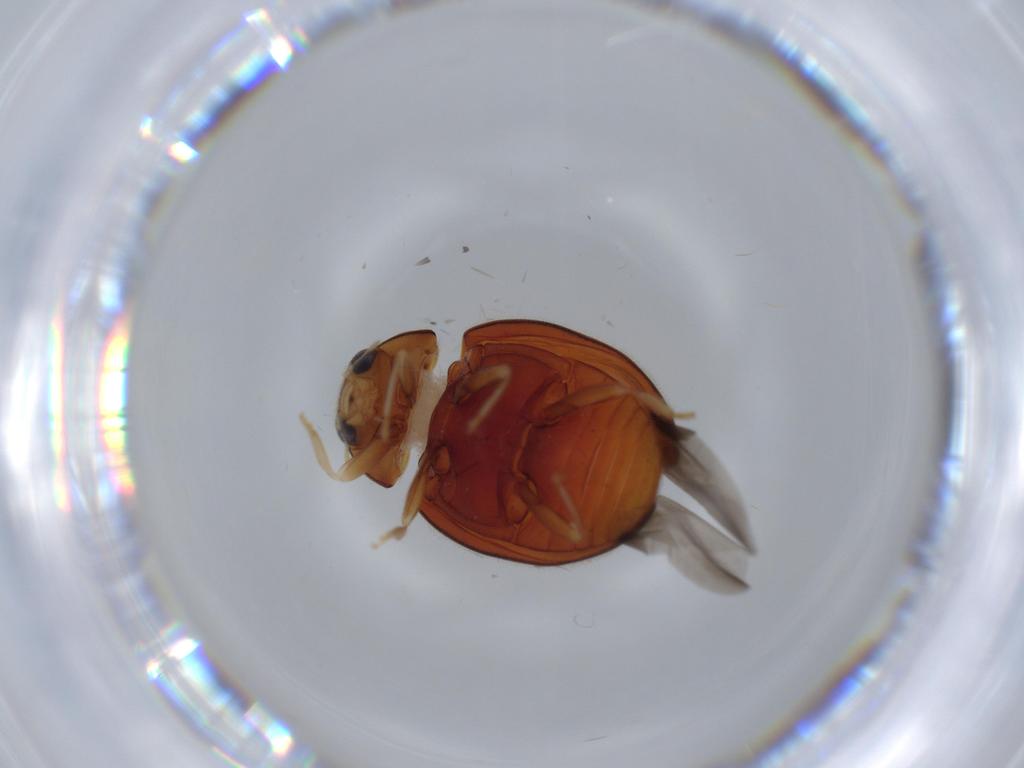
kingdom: Animalia
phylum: Arthropoda
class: Insecta
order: Coleoptera
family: Coccinellidae
